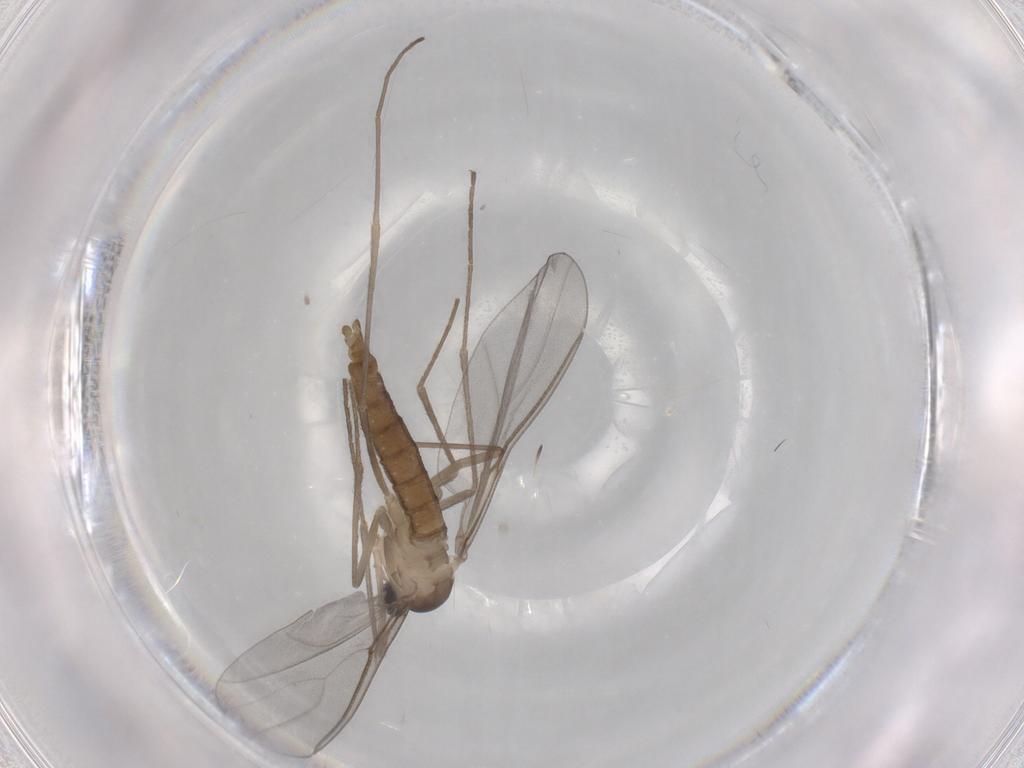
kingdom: Animalia
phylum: Arthropoda
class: Insecta
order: Diptera
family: Cecidomyiidae
